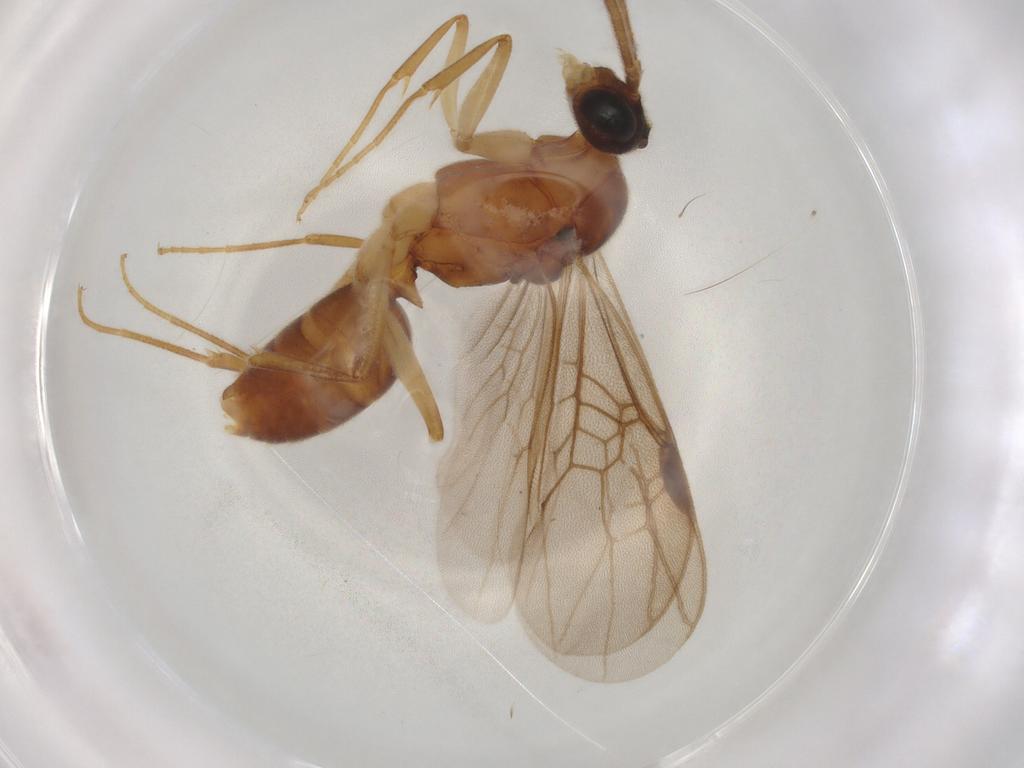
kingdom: Animalia
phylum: Arthropoda
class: Insecta
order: Hymenoptera
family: Formicidae
